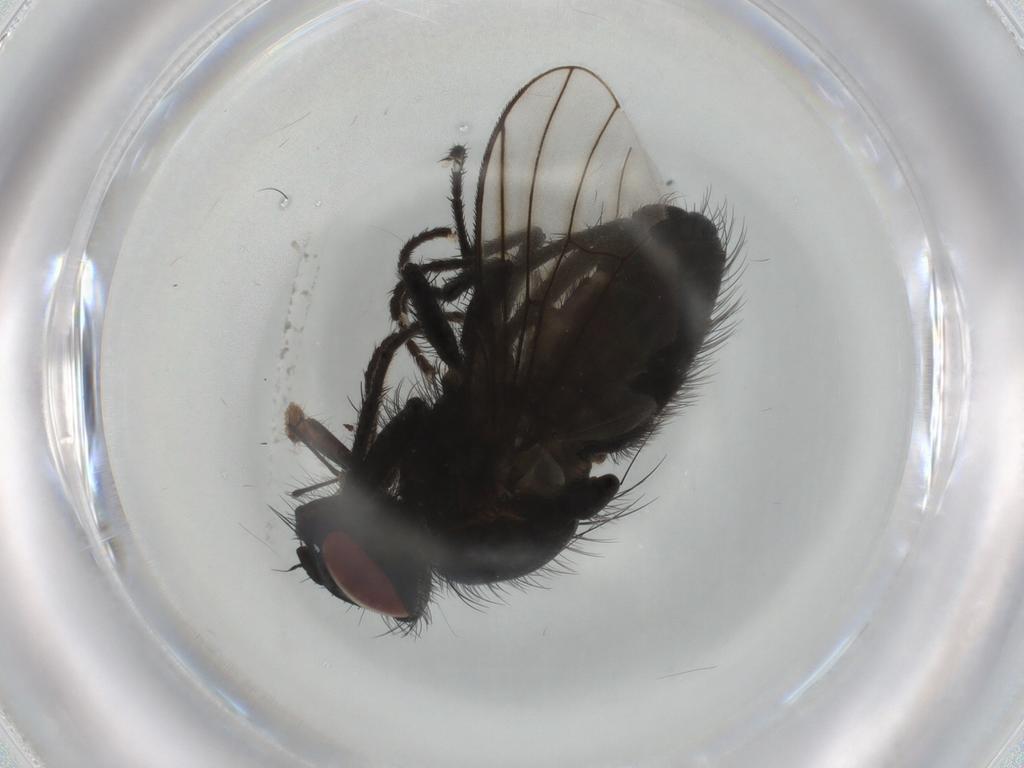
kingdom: Animalia
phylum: Arthropoda
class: Insecta
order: Diptera
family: Muscidae
